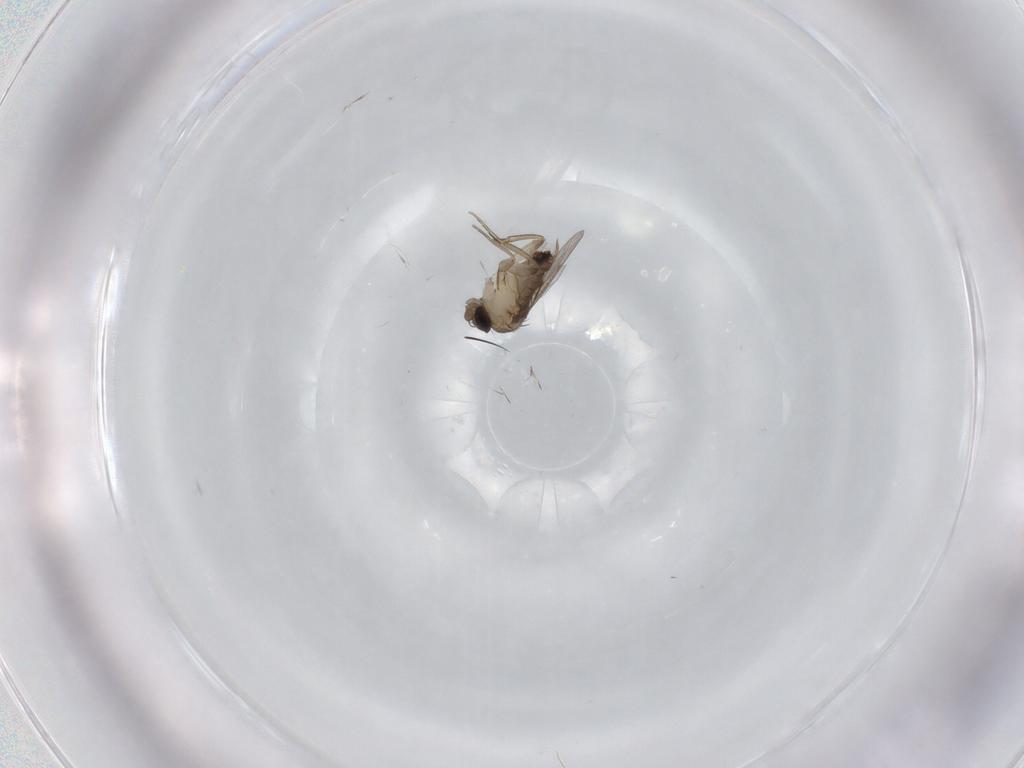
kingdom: Animalia
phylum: Arthropoda
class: Insecta
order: Diptera
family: Phoridae
